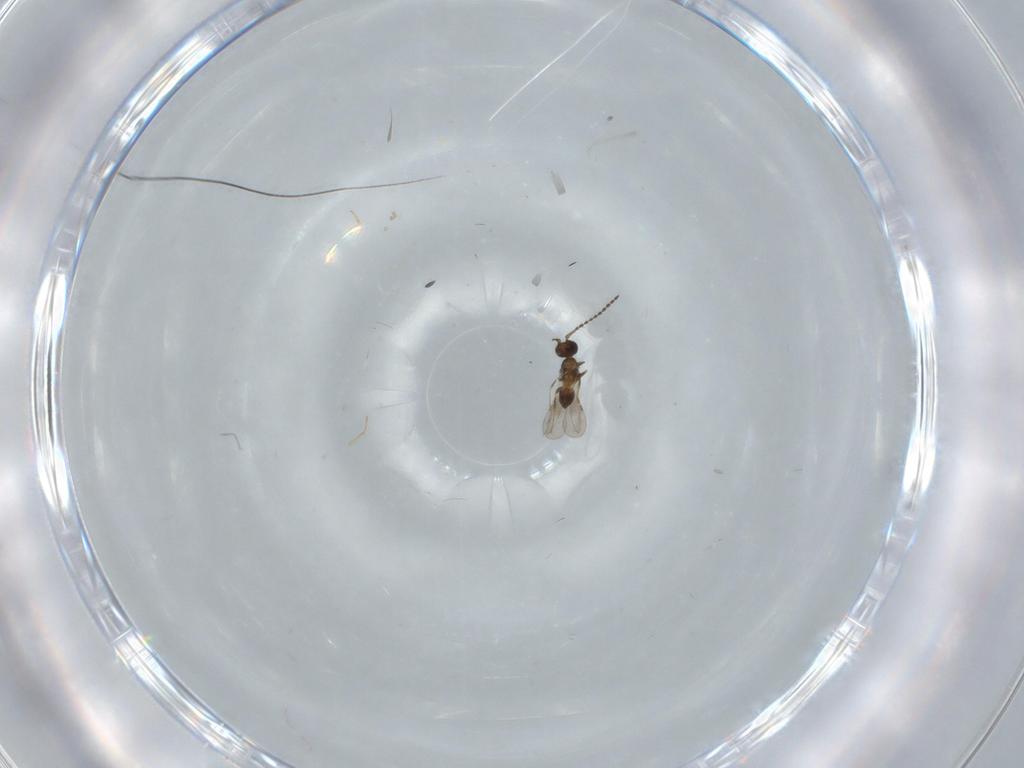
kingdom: Animalia
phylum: Arthropoda
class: Insecta
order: Hymenoptera
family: Ceraphronidae
